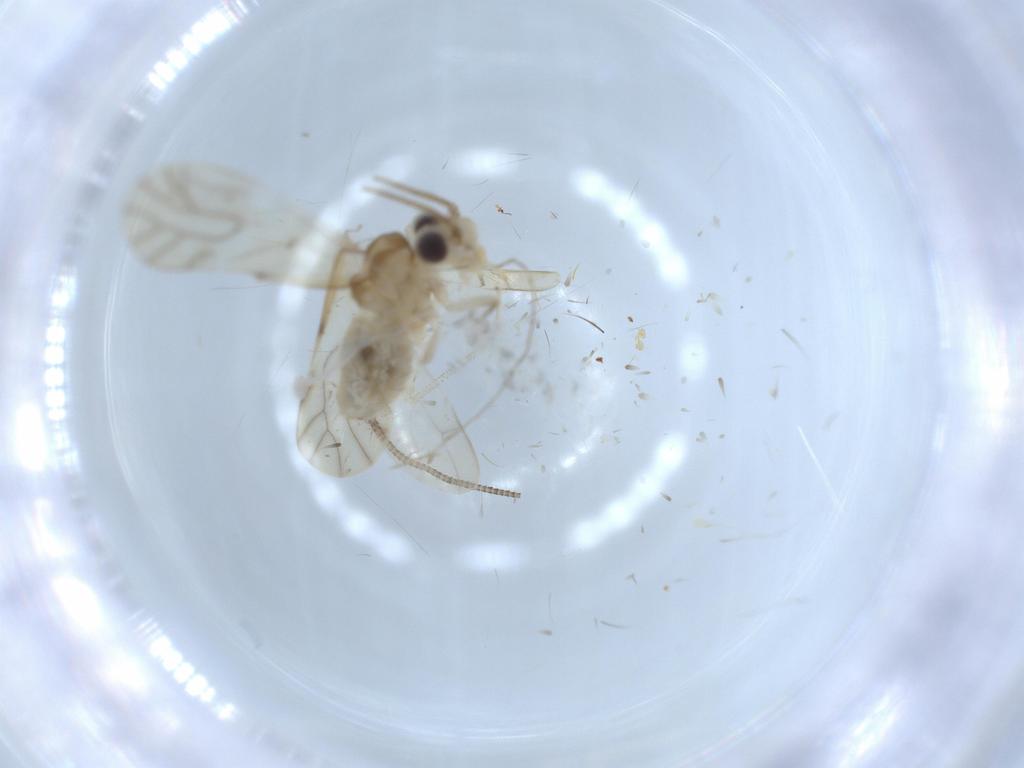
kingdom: Animalia
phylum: Arthropoda
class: Insecta
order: Psocodea
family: Caeciliusidae
